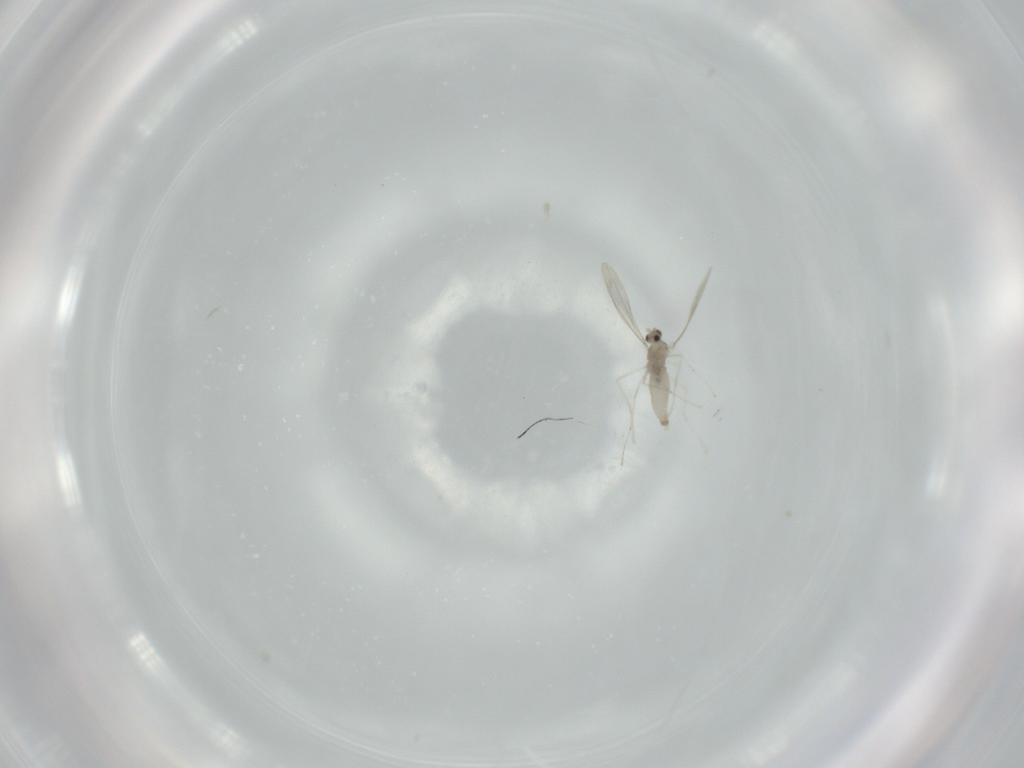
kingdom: Animalia
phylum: Arthropoda
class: Insecta
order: Diptera
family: Cecidomyiidae
